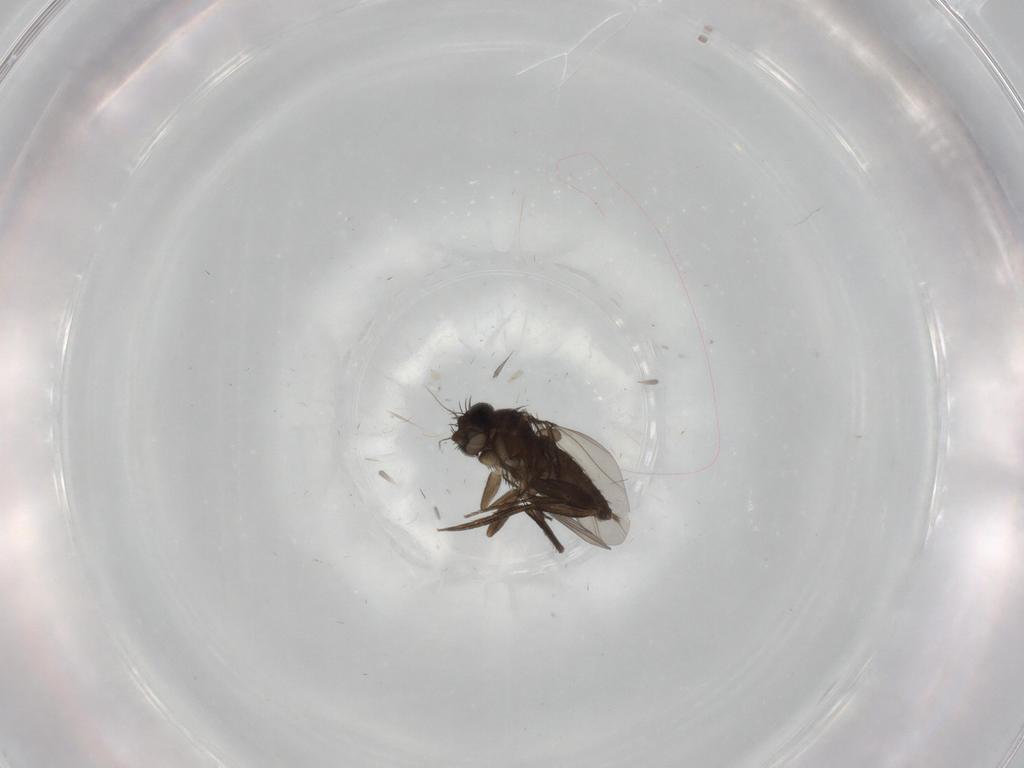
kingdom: Animalia
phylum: Arthropoda
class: Insecta
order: Diptera
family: Phoridae
